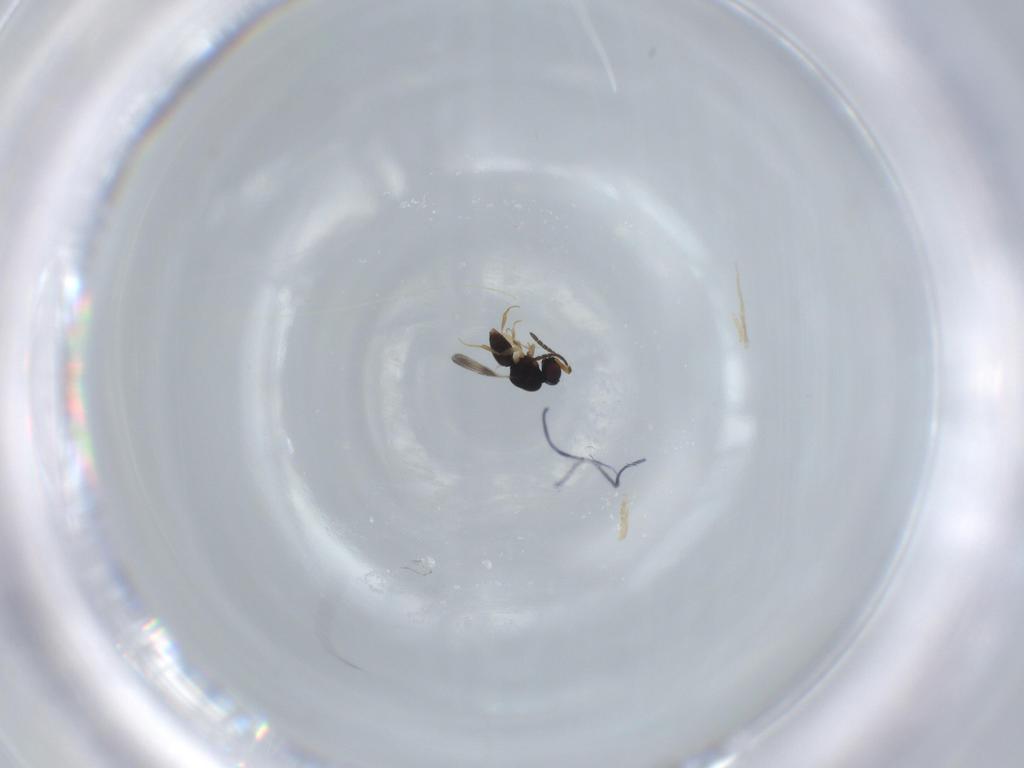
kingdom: Animalia
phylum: Arthropoda
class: Insecta
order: Hymenoptera
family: Ceraphronidae
